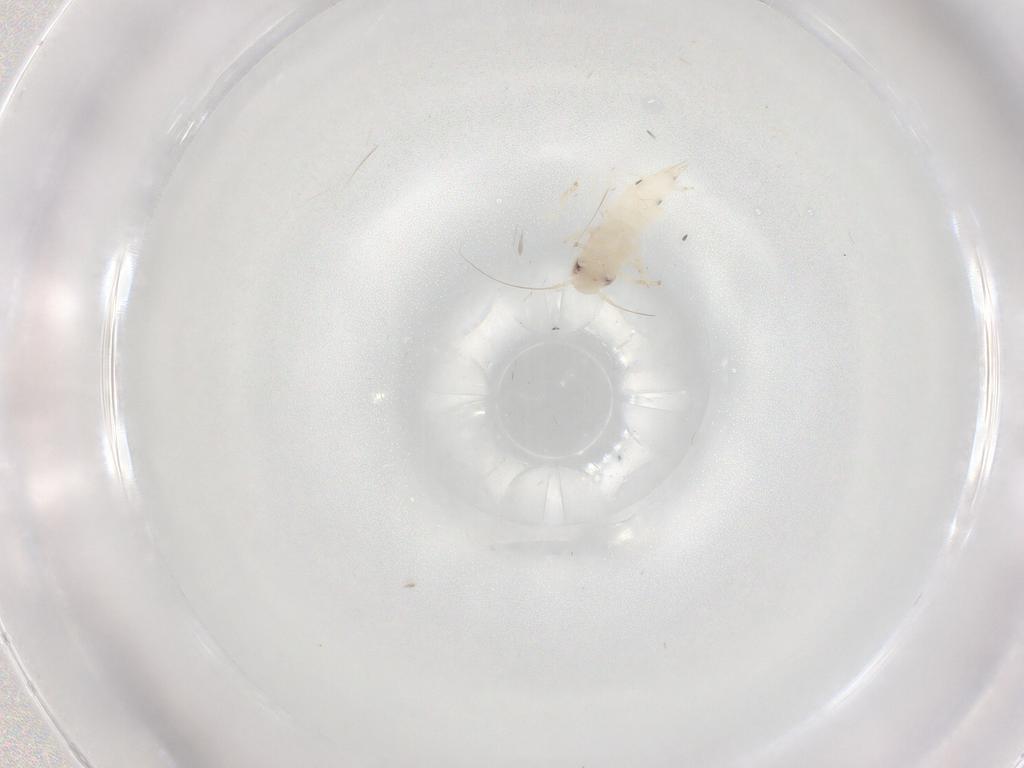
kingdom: Animalia
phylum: Arthropoda
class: Insecta
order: Hemiptera
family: Cicadellidae
